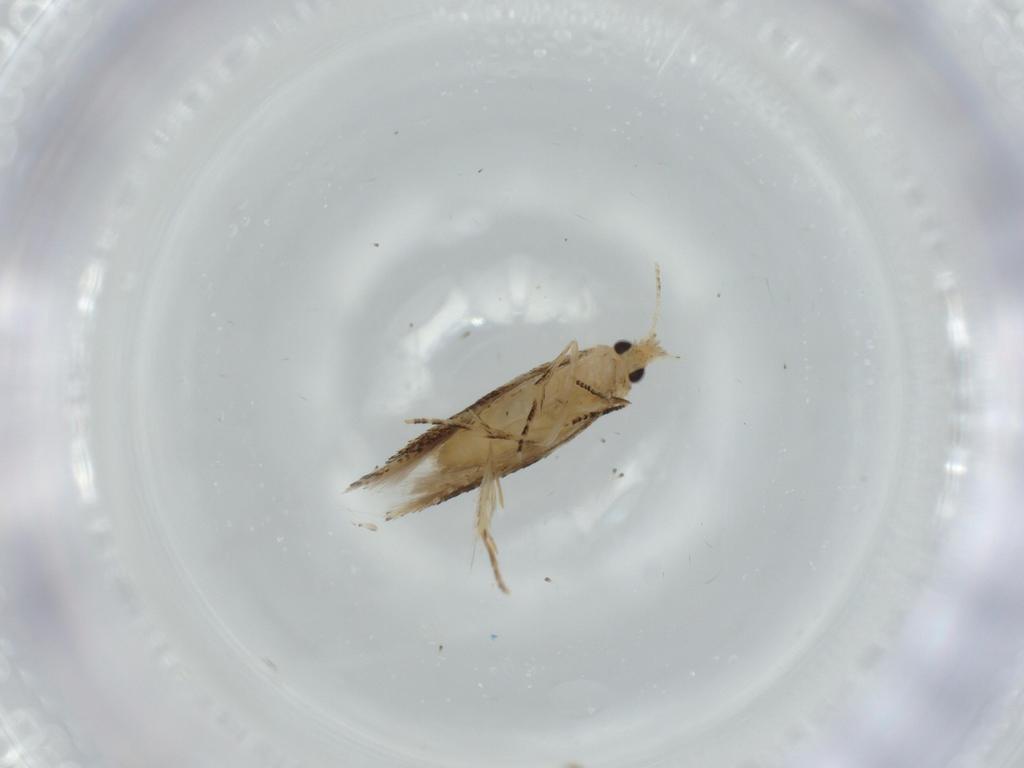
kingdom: Animalia
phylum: Arthropoda
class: Insecta
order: Lepidoptera
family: Bucculatricidae
